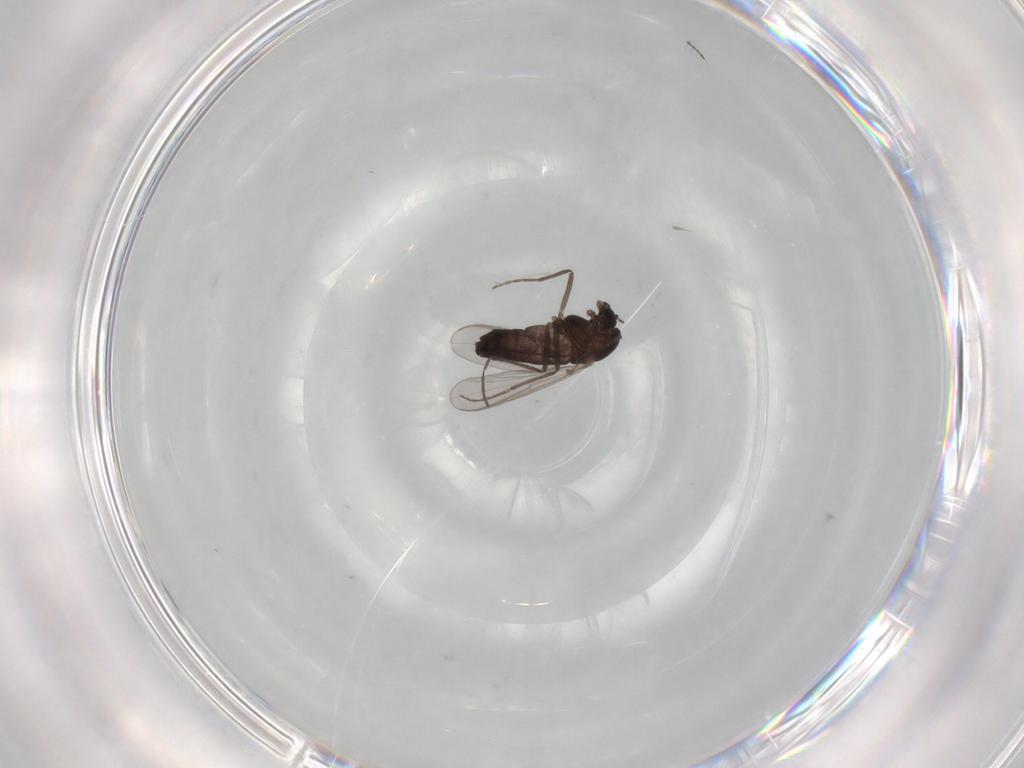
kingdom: Animalia
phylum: Arthropoda
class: Insecta
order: Diptera
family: Chironomidae
